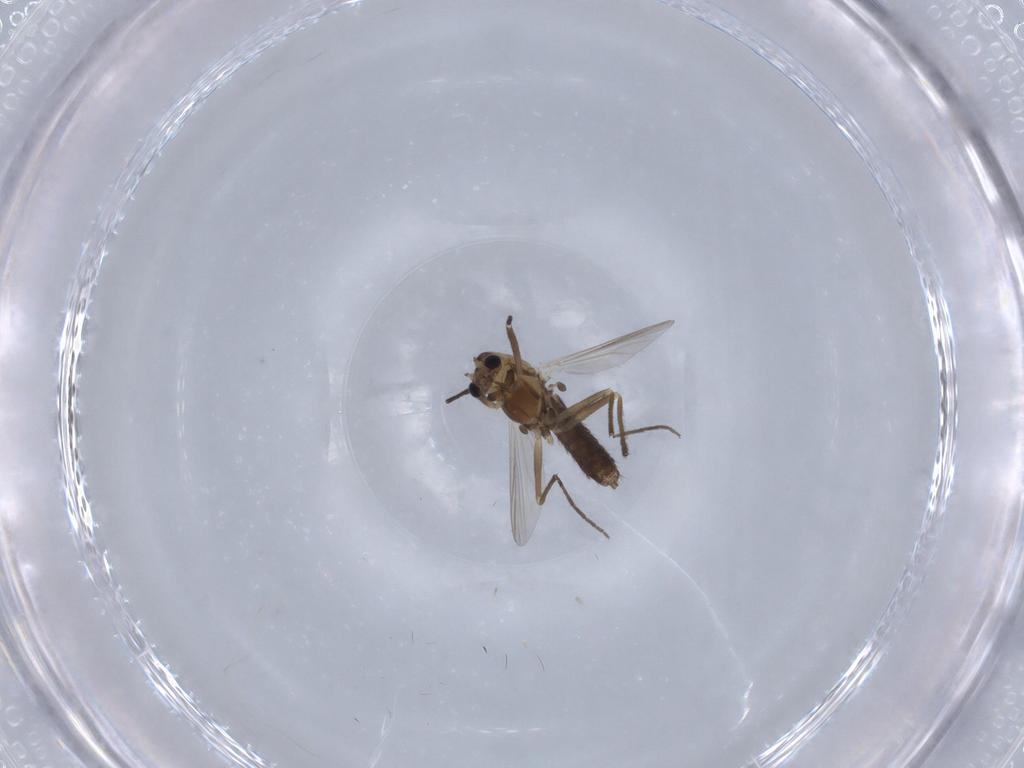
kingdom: Animalia
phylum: Arthropoda
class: Insecta
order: Diptera
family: Chironomidae
